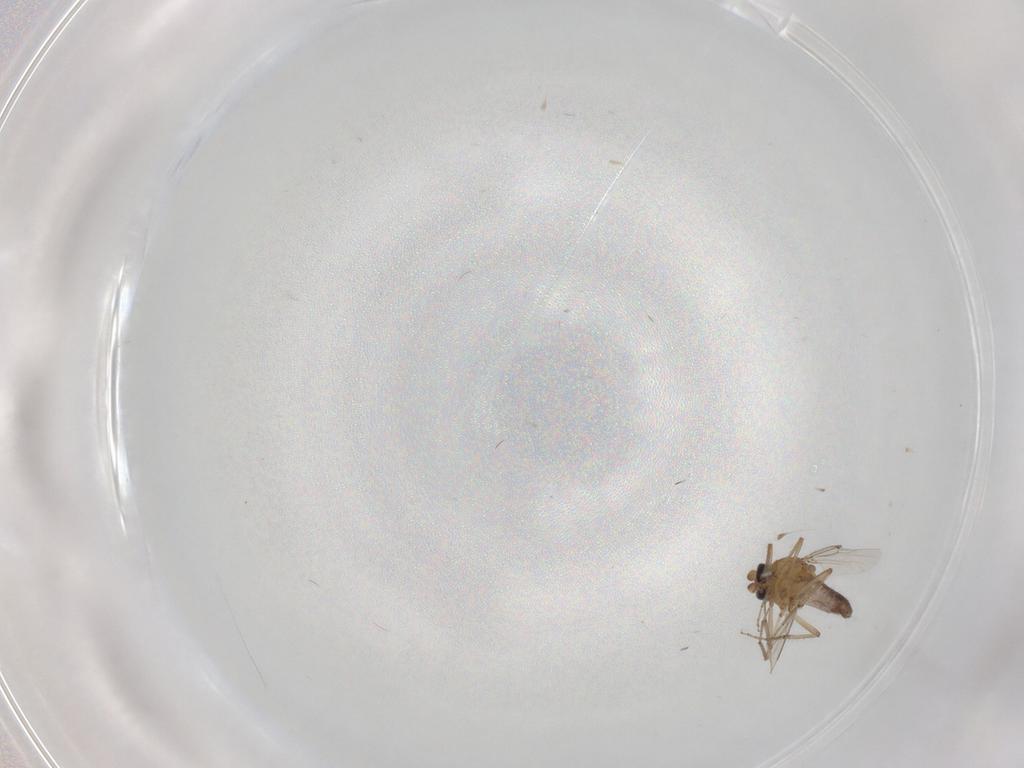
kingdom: Animalia
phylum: Arthropoda
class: Insecta
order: Diptera
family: Ceratopogonidae
